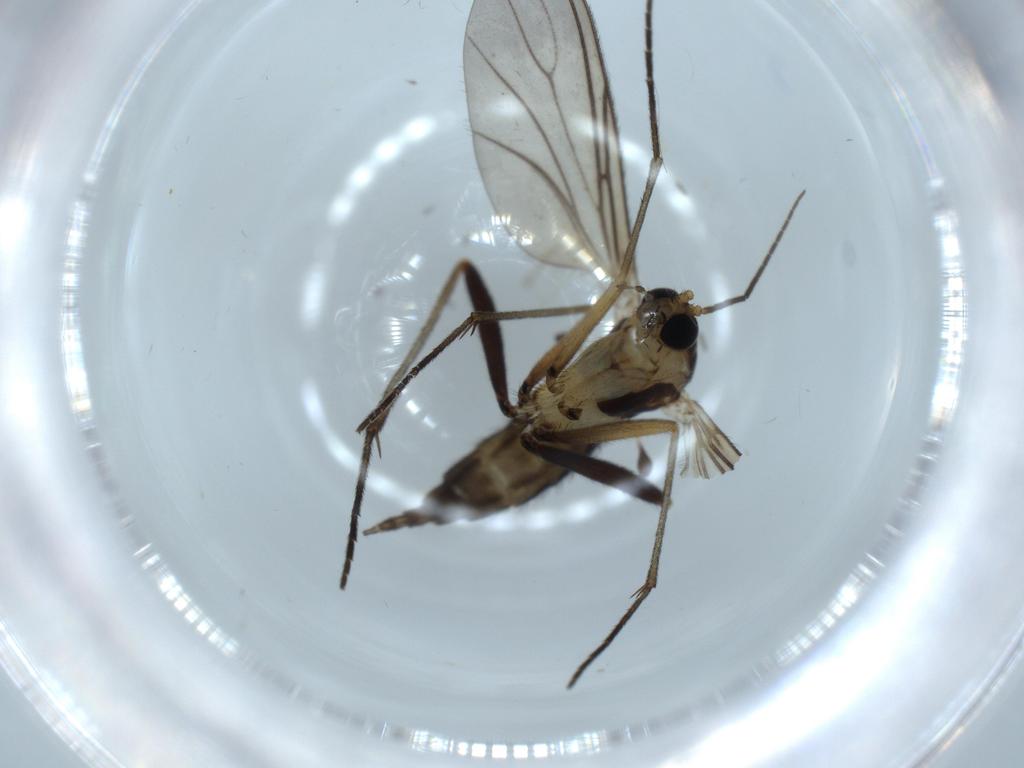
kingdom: Animalia
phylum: Arthropoda
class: Insecta
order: Diptera
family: Sciaridae
